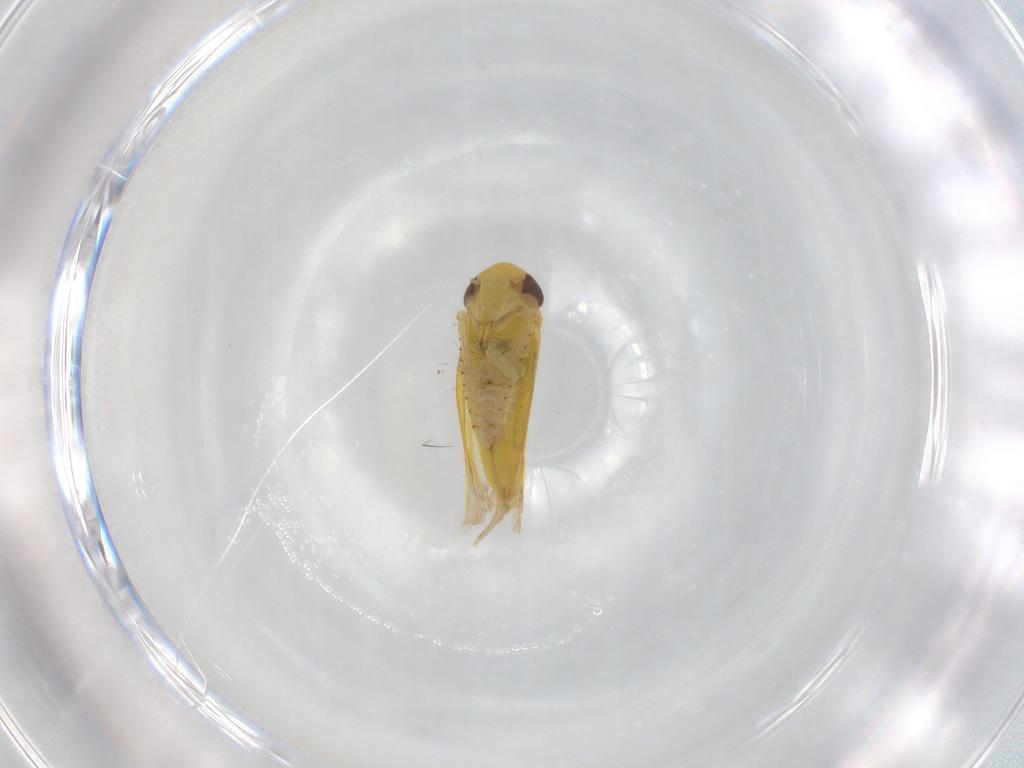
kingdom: Animalia
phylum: Arthropoda
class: Insecta
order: Hemiptera
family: Cicadellidae
